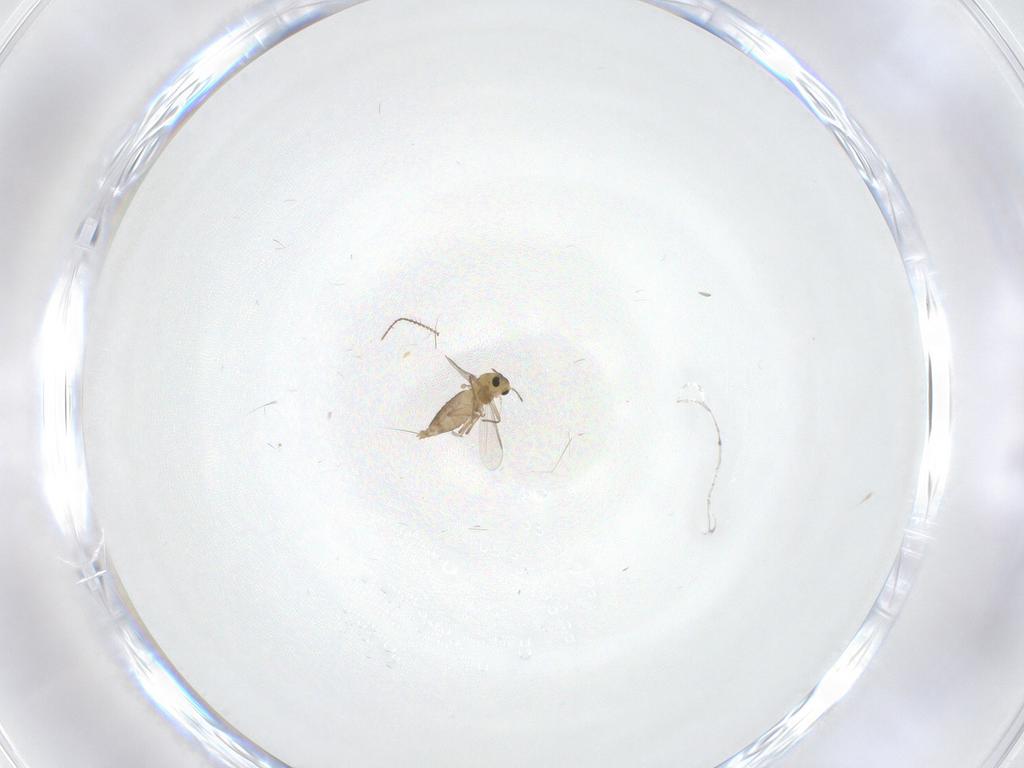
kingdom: Animalia
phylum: Arthropoda
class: Insecta
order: Diptera
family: Chironomidae
